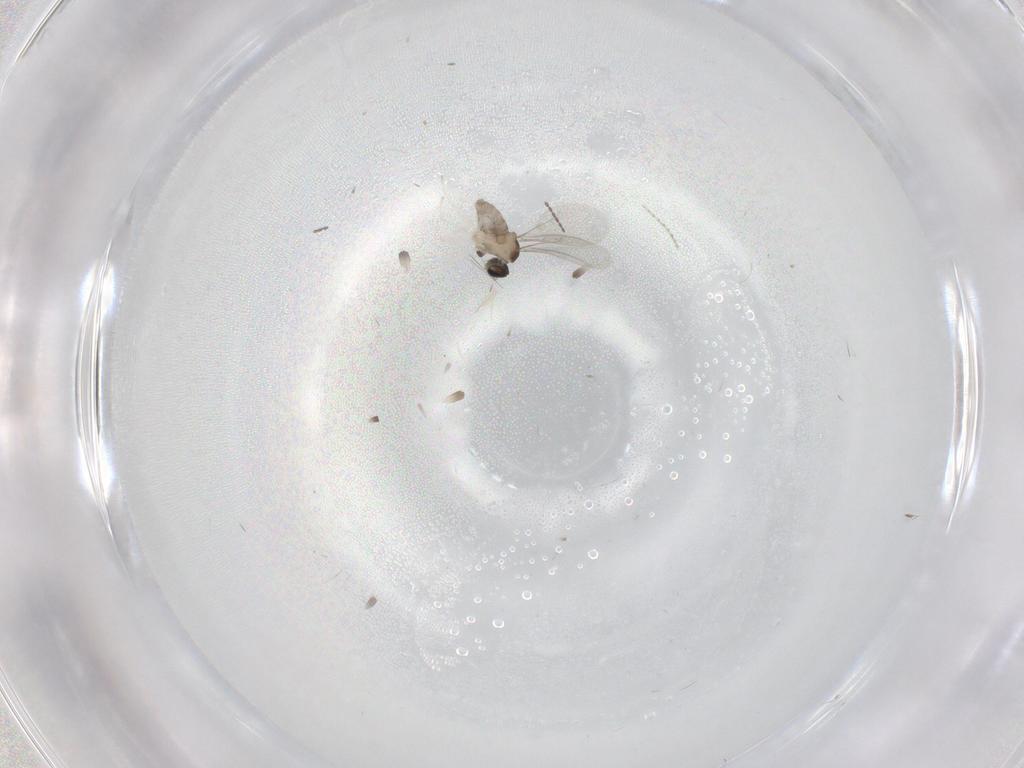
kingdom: Animalia
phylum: Arthropoda
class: Insecta
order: Diptera
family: Cecidomyiidae
